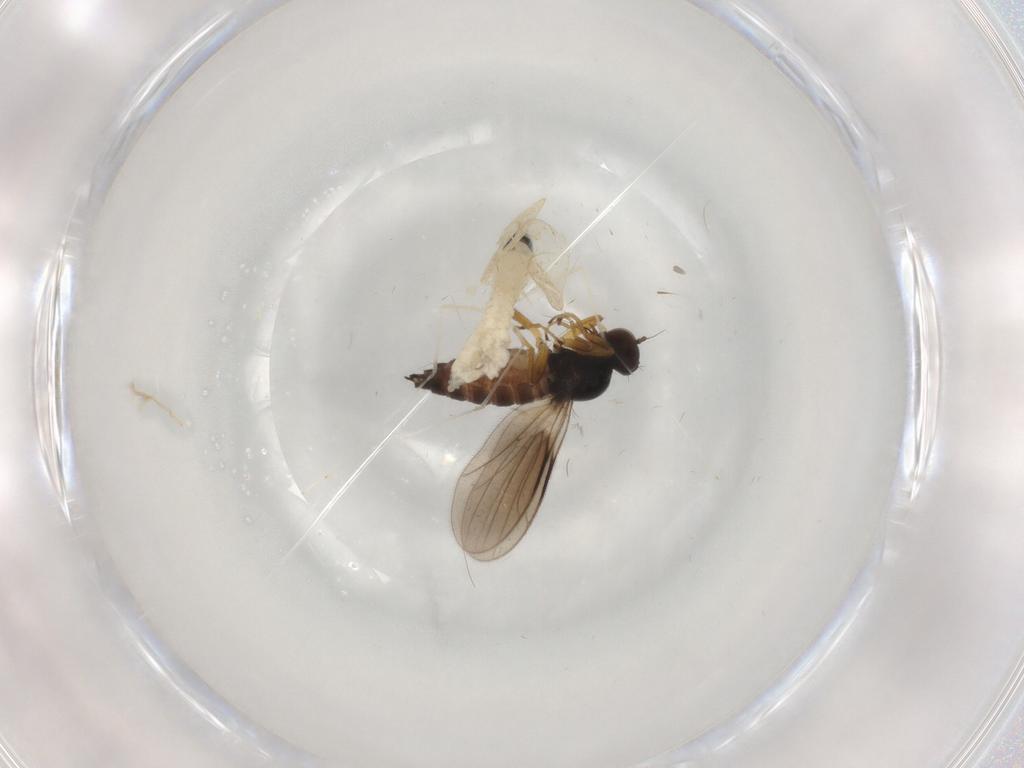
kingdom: Animalia
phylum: Arthropoda
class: Insecta
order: Diptera
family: Hybotidae
